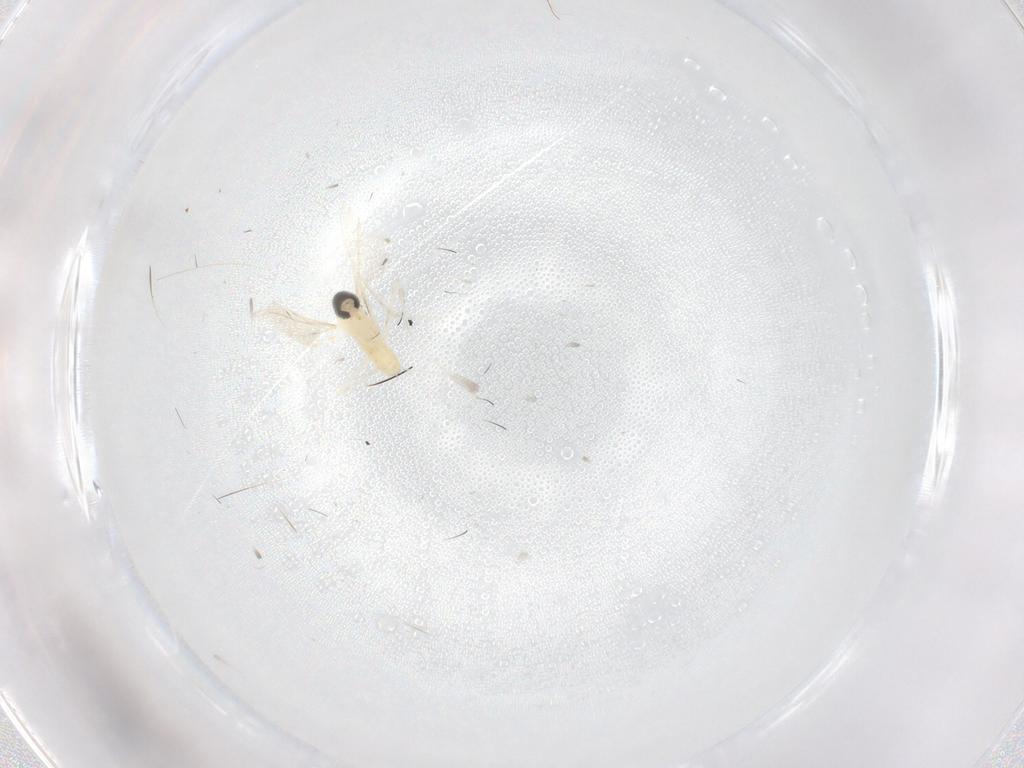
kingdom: Animalia
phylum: Arthropoda
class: Insecta
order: Diptera
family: Cecidomyiidae
